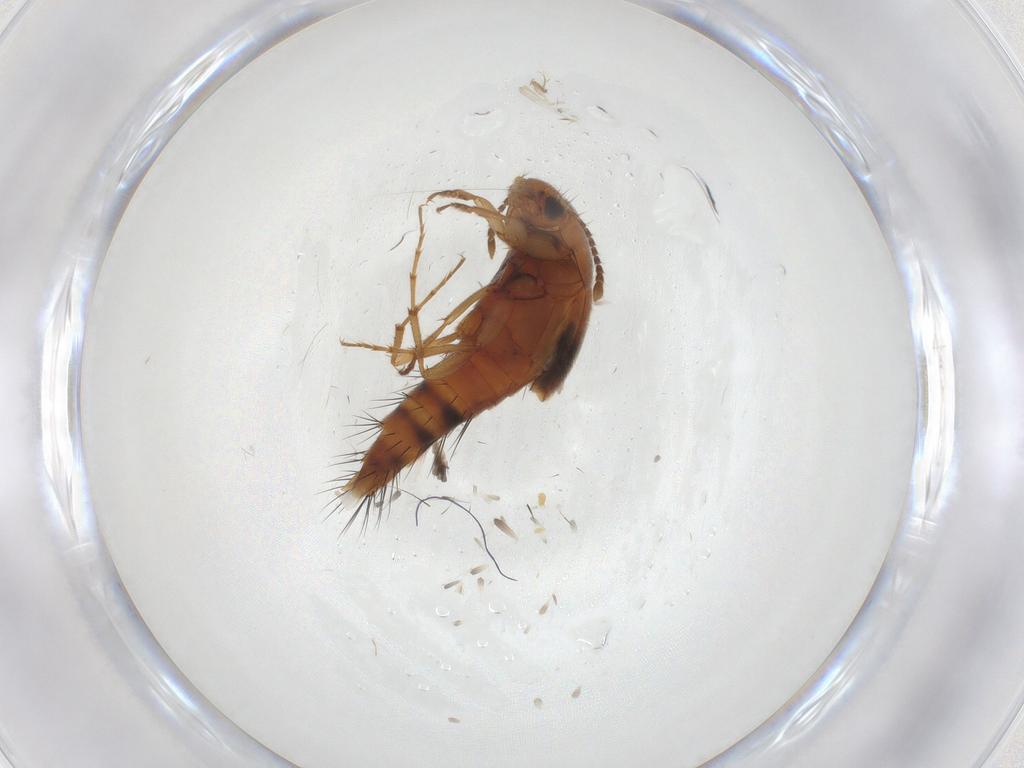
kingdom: Animalia
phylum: Arthropoda
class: Insecta
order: Coleoptera
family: Staphylinidae
